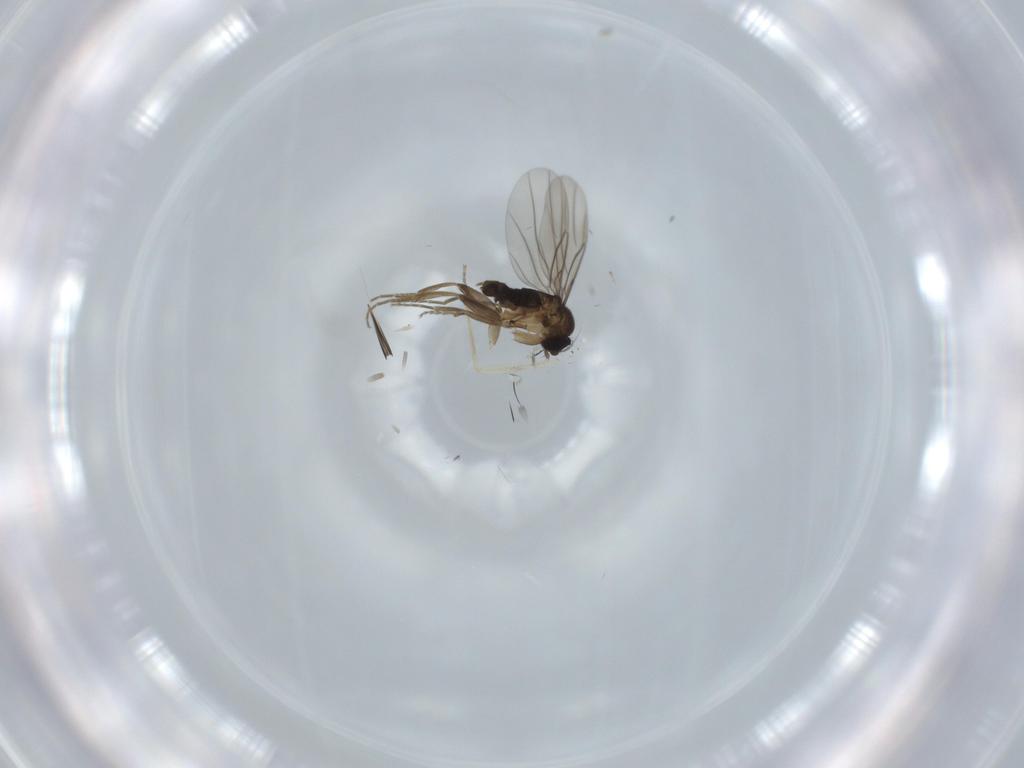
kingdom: Animalia
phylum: Arthropoda
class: Insecta
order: Diptera
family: Phoridae
